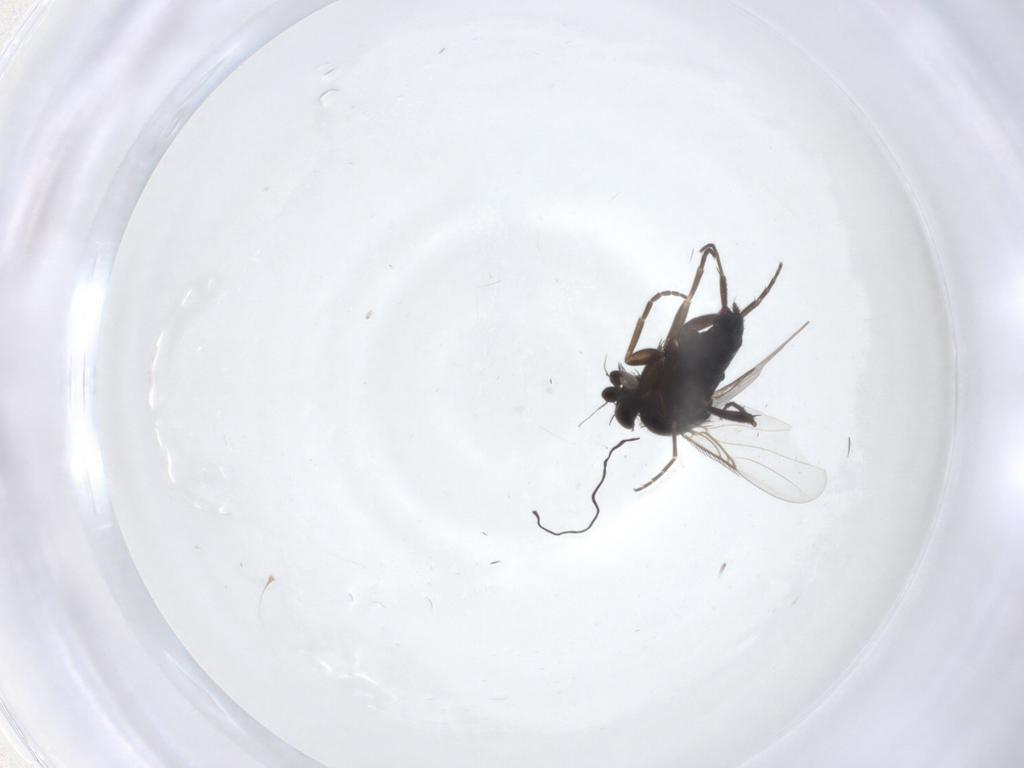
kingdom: Animalia
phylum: Arthropoda
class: Insecta
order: Diptera
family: Phoridae
